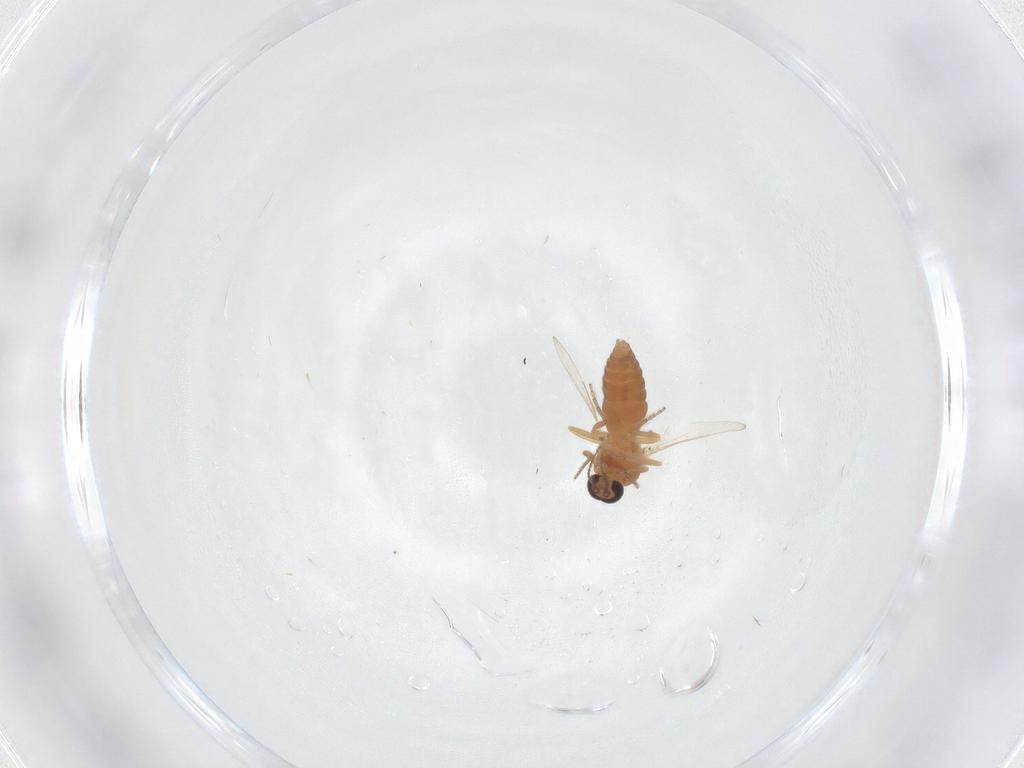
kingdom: Animalia
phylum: Arthropoda
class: Insecta
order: Diptera
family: Ceratopogonidae
